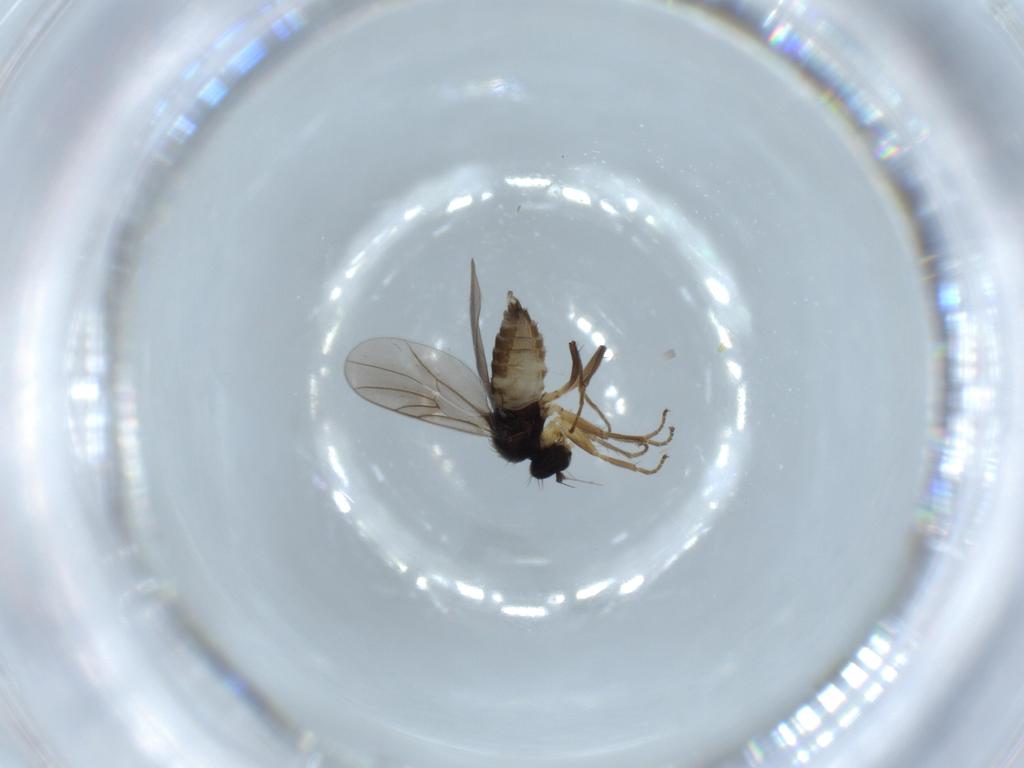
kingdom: Animalia
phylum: Arthropoda
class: Insecta
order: Diptera
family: Hybotidae
